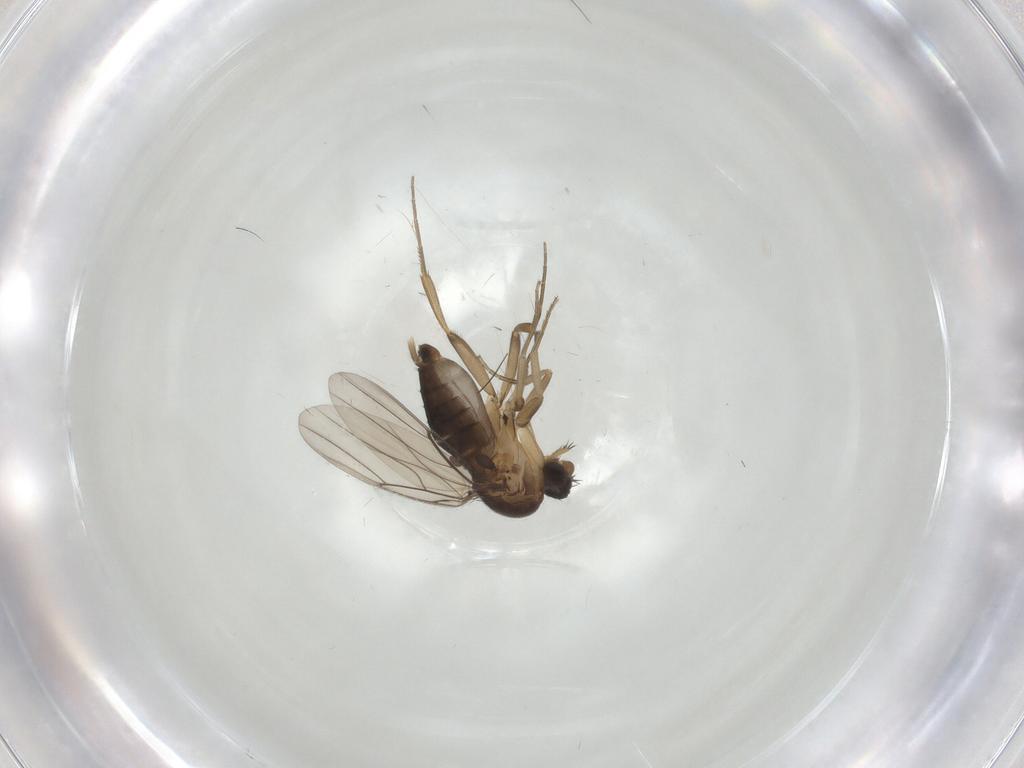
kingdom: Animalia
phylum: Arthropoda
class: Insecta
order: Diptera
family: Phoridae
